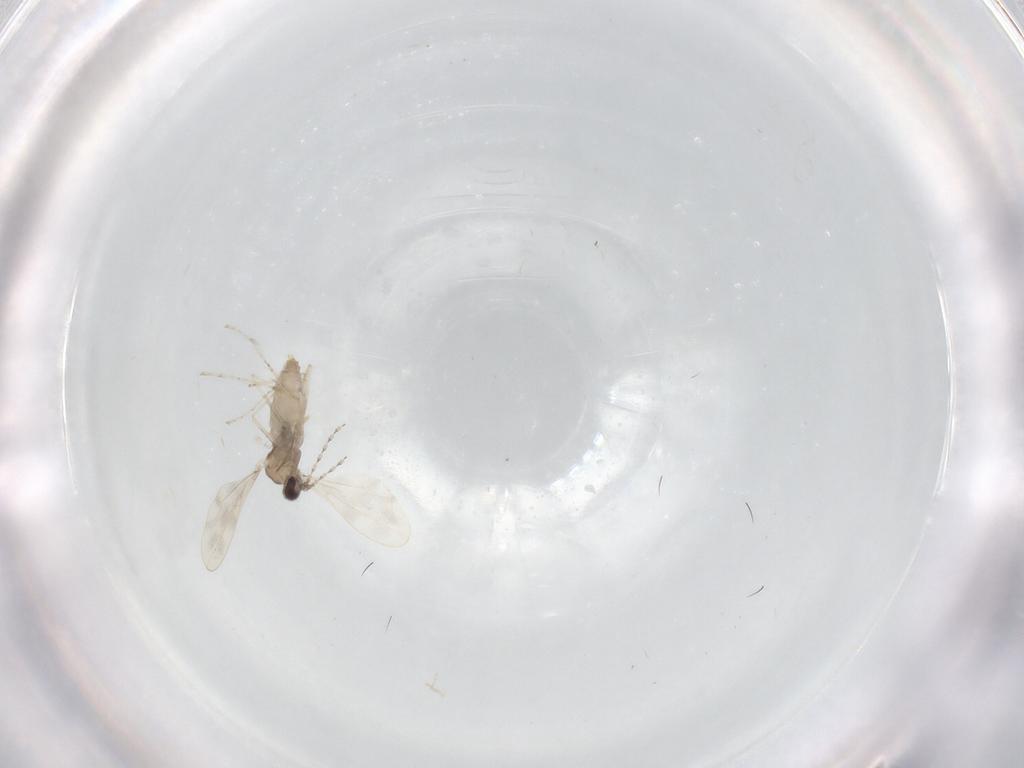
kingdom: Animalia
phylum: Arthropoda
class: Insecta
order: Diptera
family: Cecidomyiidae
